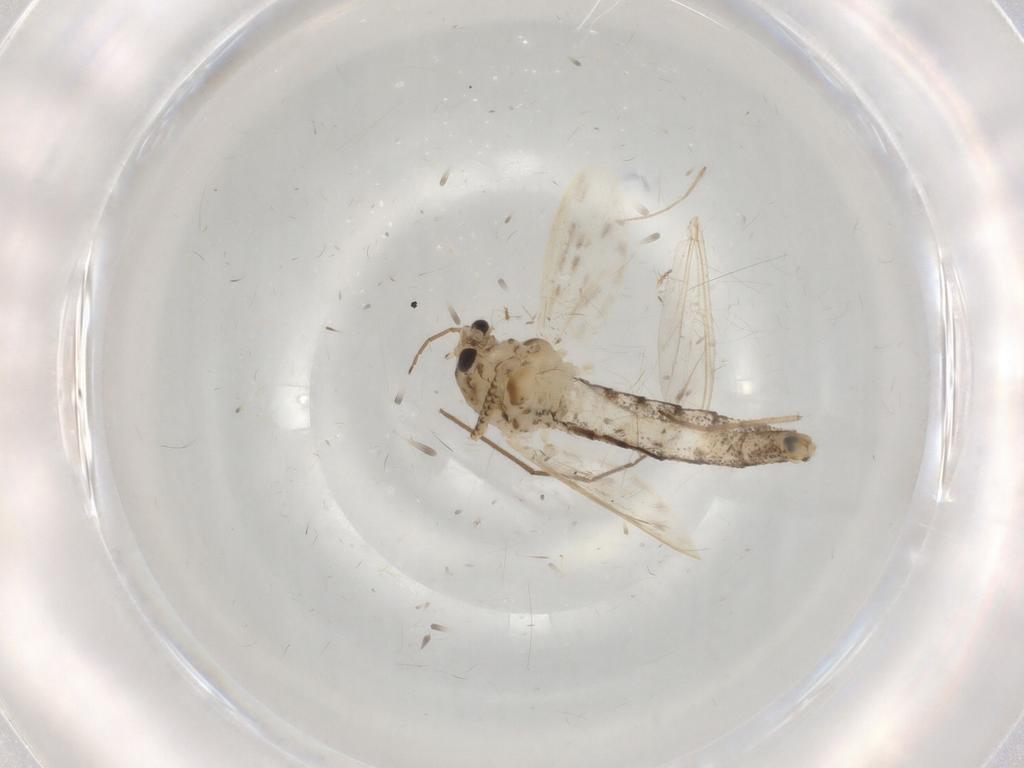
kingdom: Animalia
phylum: Arthropoda
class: Insecta
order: Diptera
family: Chaoboridae
